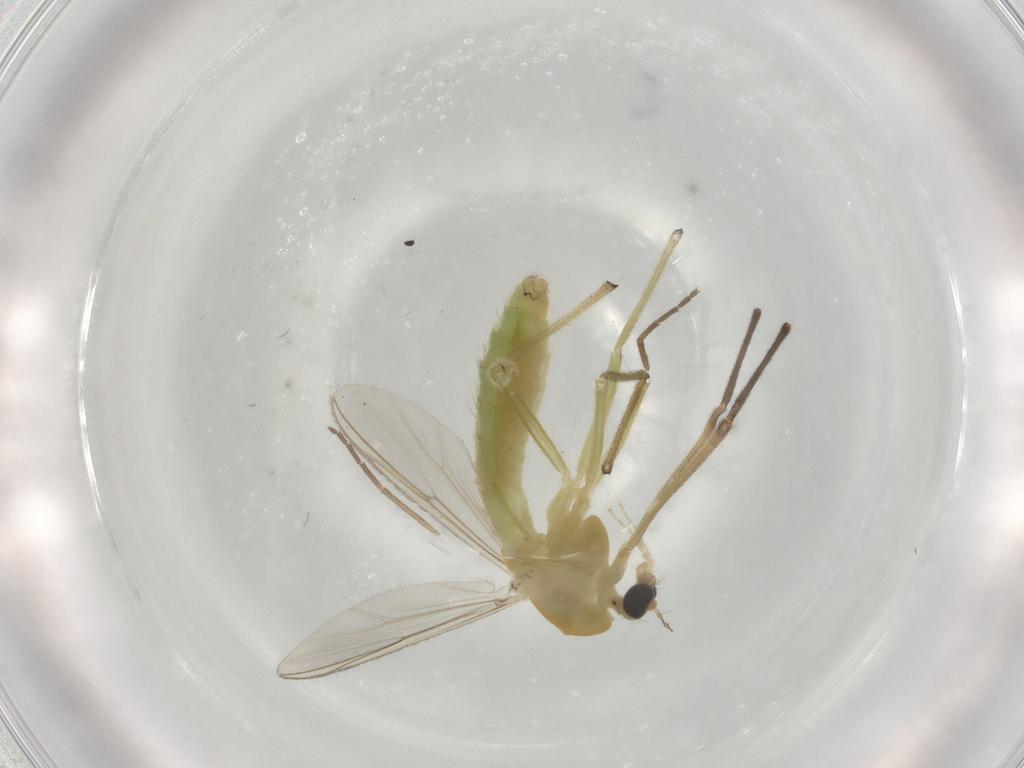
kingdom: Animalia
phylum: Arthropoda
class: Insecta
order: Diptera
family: Chironomidae
